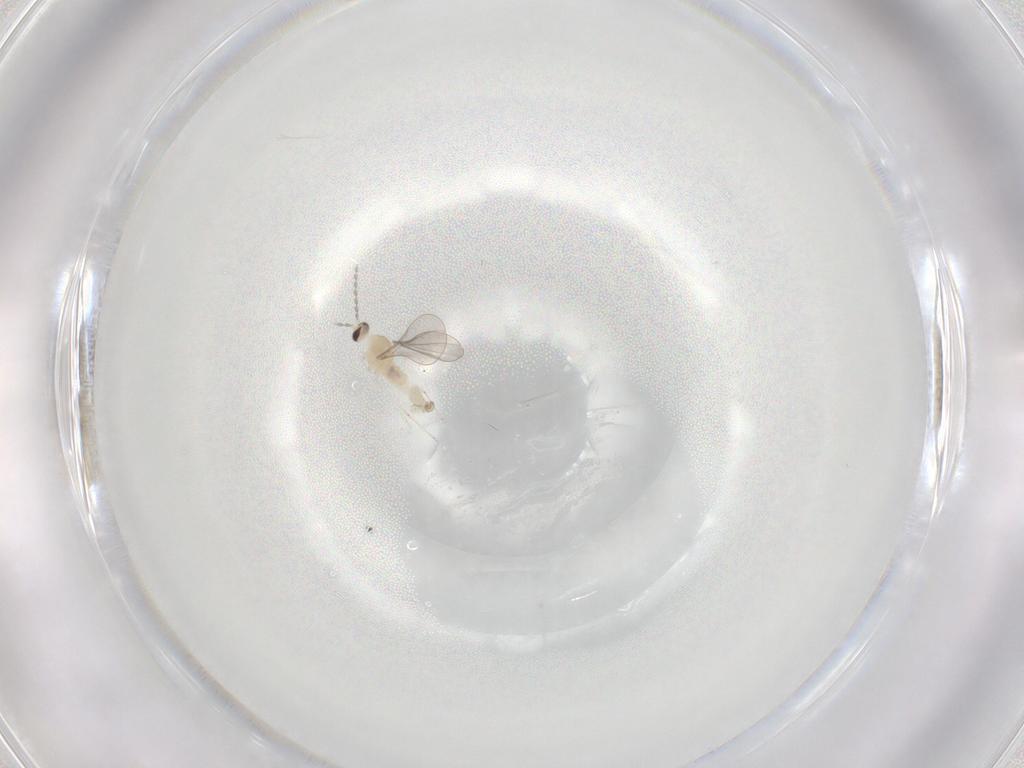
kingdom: Animalia
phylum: Arthropoda
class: Insecta
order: Diptera
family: Cecidomyiidae
